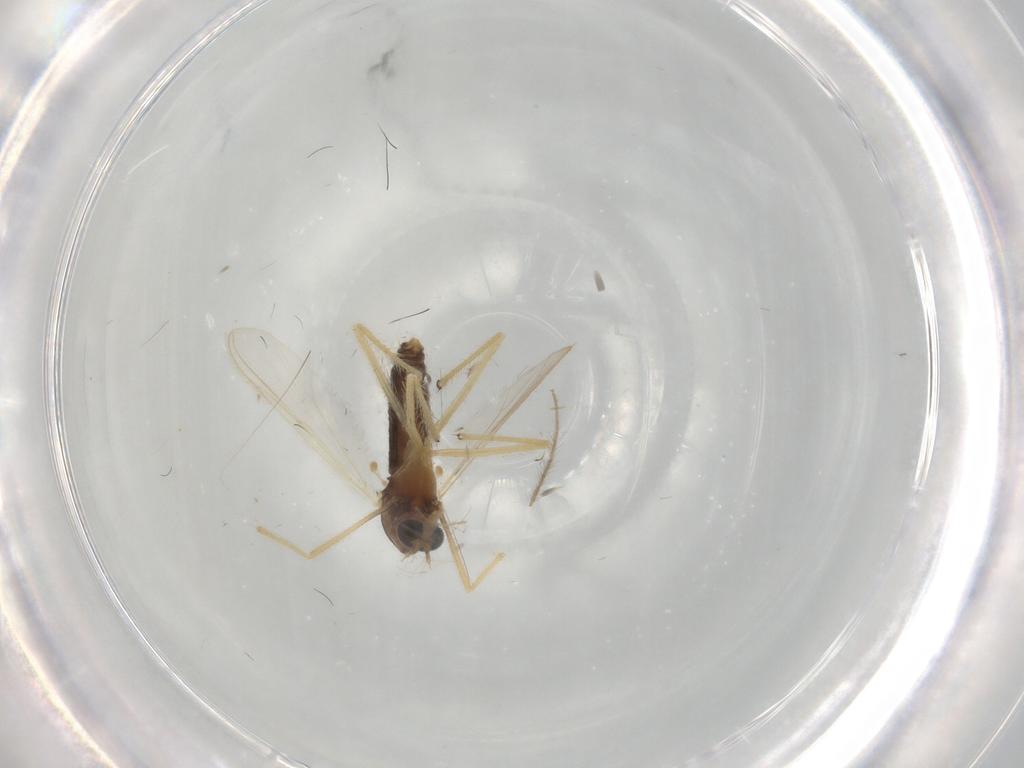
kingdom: Animalia
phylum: Arthropoda
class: Insecta
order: Diptera
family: Chironomidae
